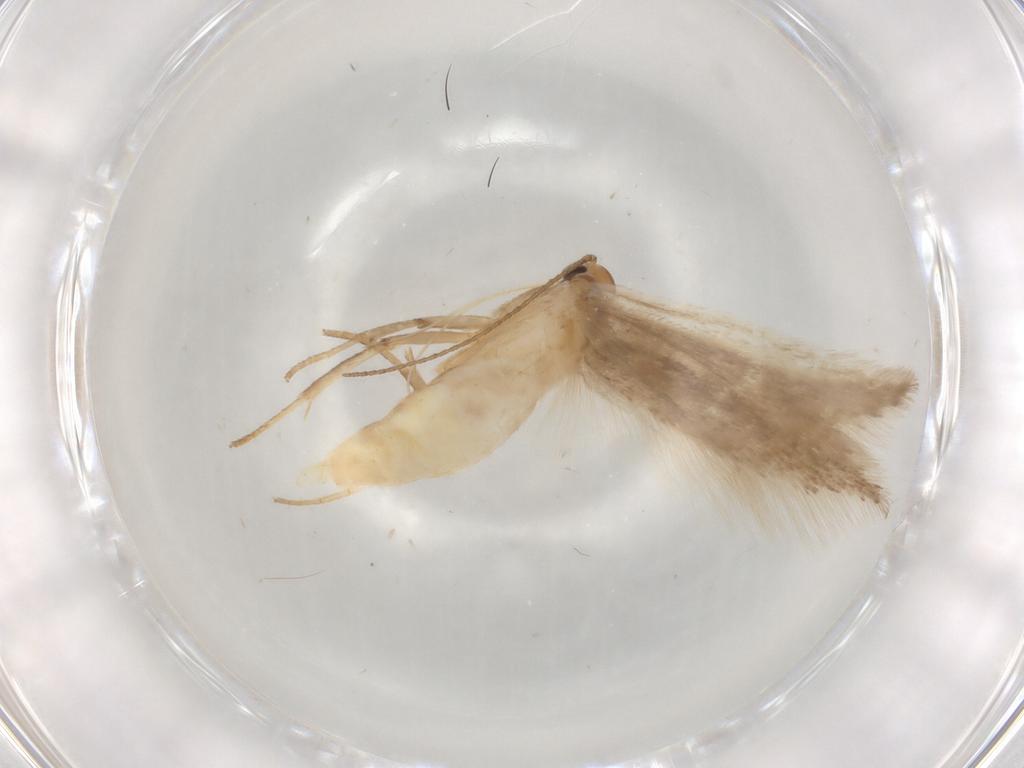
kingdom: Animalia
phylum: Arthropoda
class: Insecta
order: Lepidoptera
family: Gelechiidae
